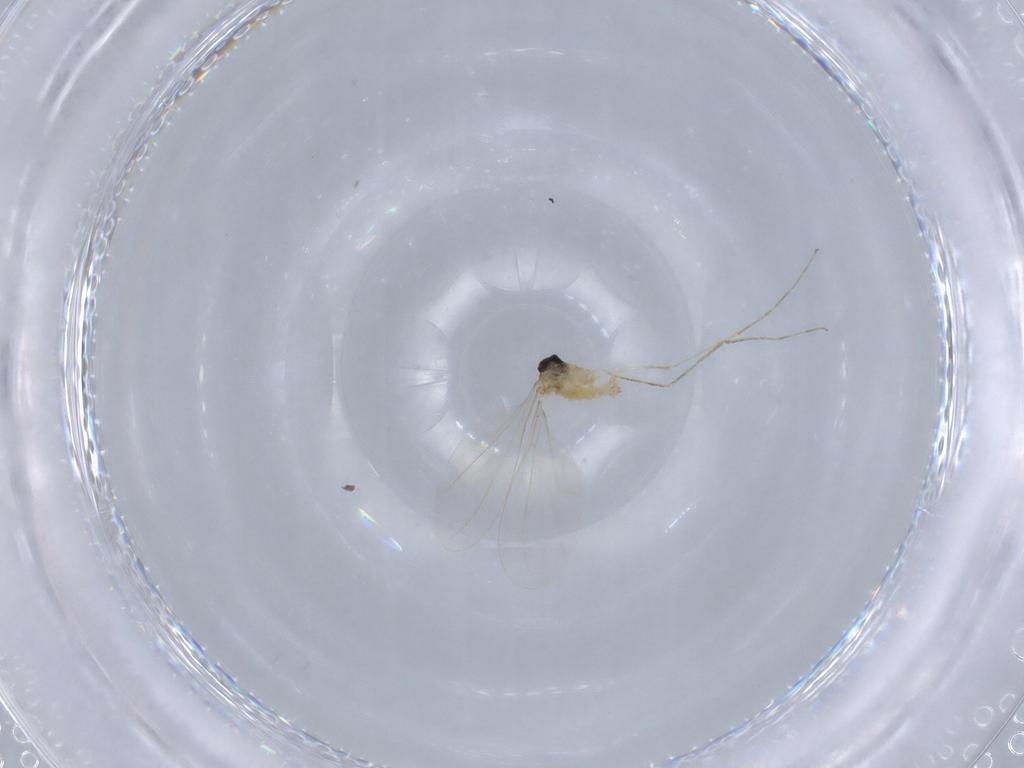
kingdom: Animalia
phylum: Arthropoda
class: Insecta
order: Diptera
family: Cecidomyiidae
